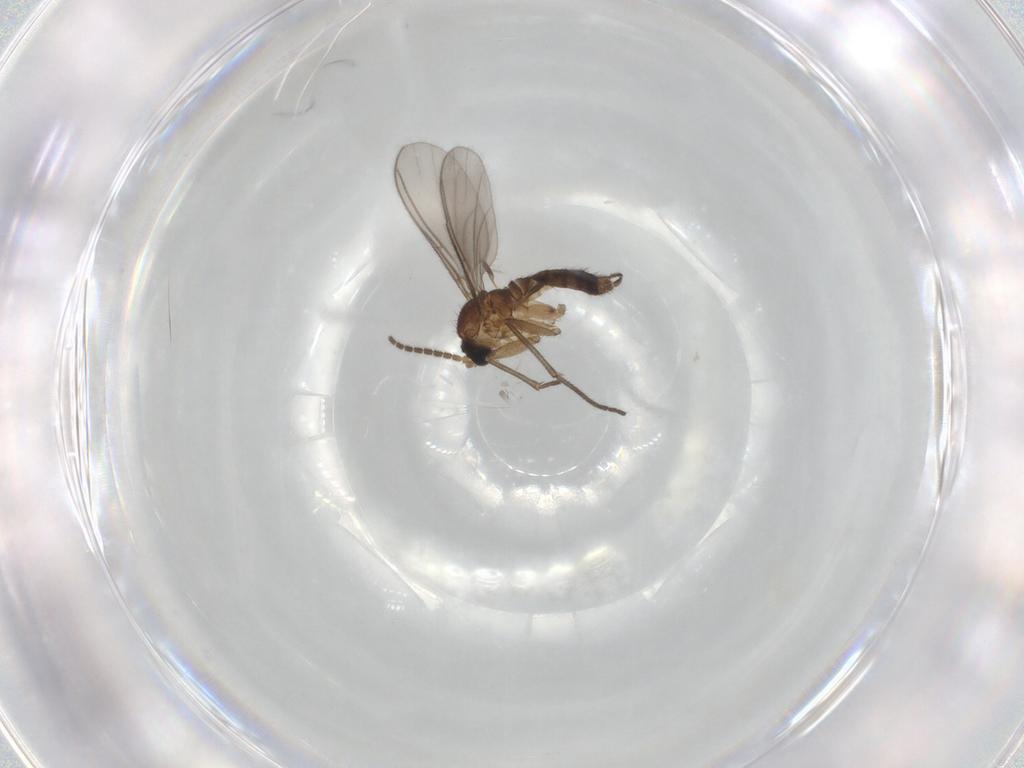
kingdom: Animalia
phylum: Arthropoda
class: Insecta
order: Diptera
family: Sciaridae
